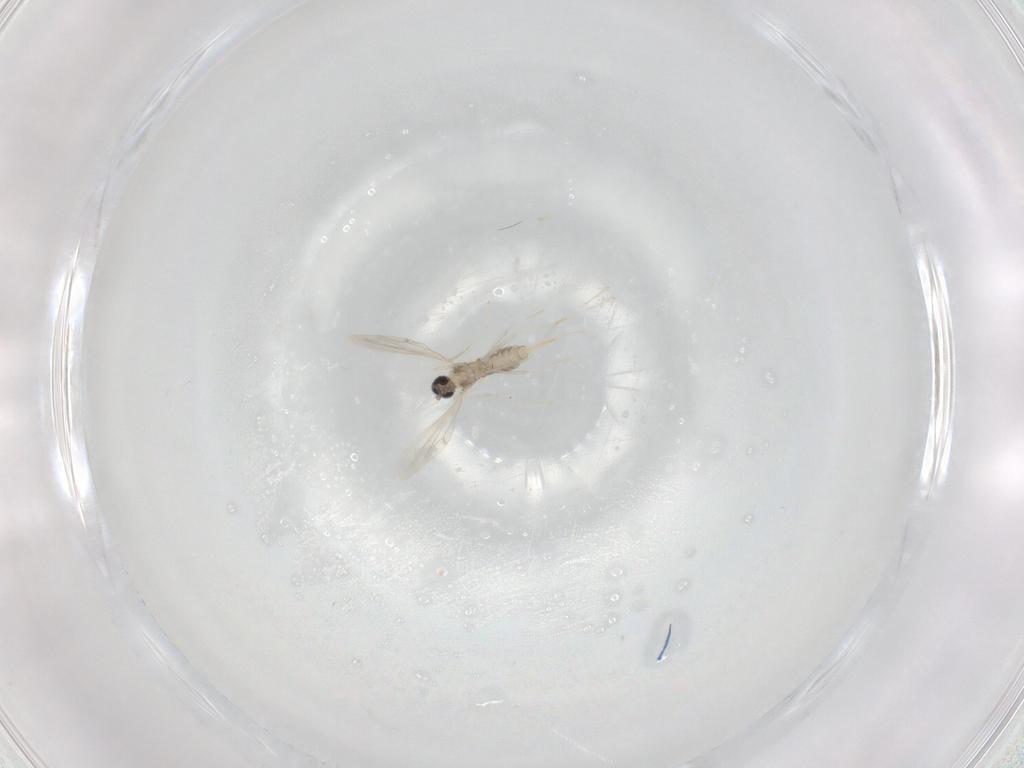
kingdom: Animalia
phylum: Arthropoda
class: Insecta
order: Diptera
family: Cecidomyiidae
